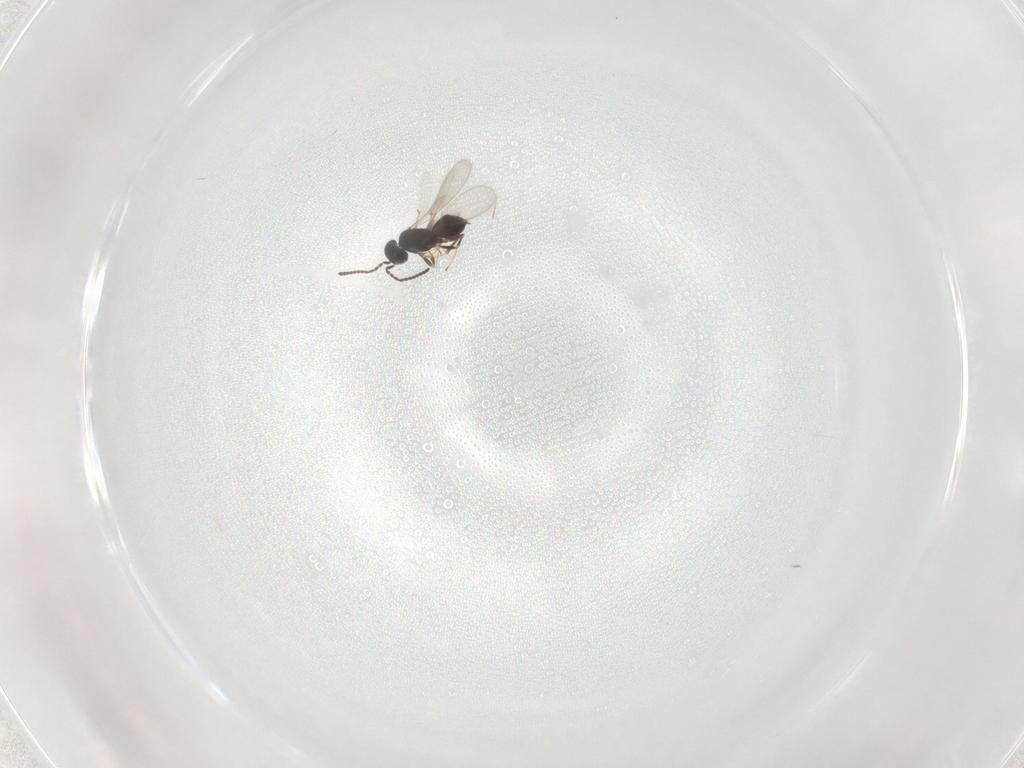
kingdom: Animalia
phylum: Arthropoda
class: Insecta
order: Hymenoptera
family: Scelionidae
